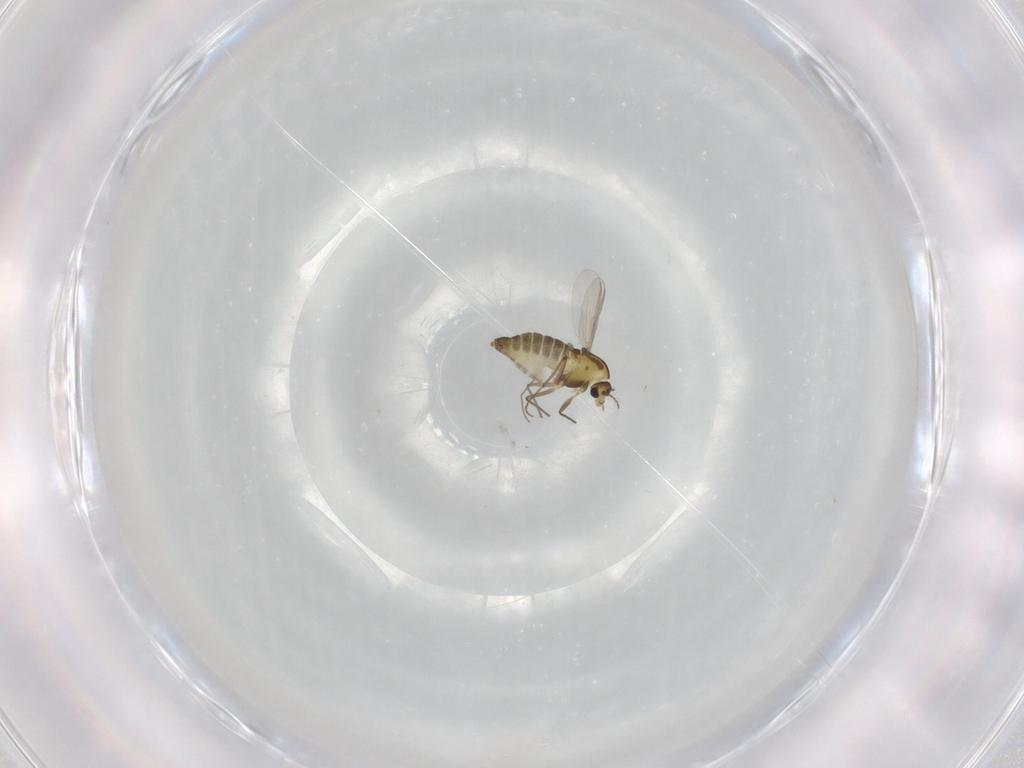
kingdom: Animalia
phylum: Arthropoda
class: Insecta
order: Diptera
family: Chironomidae
